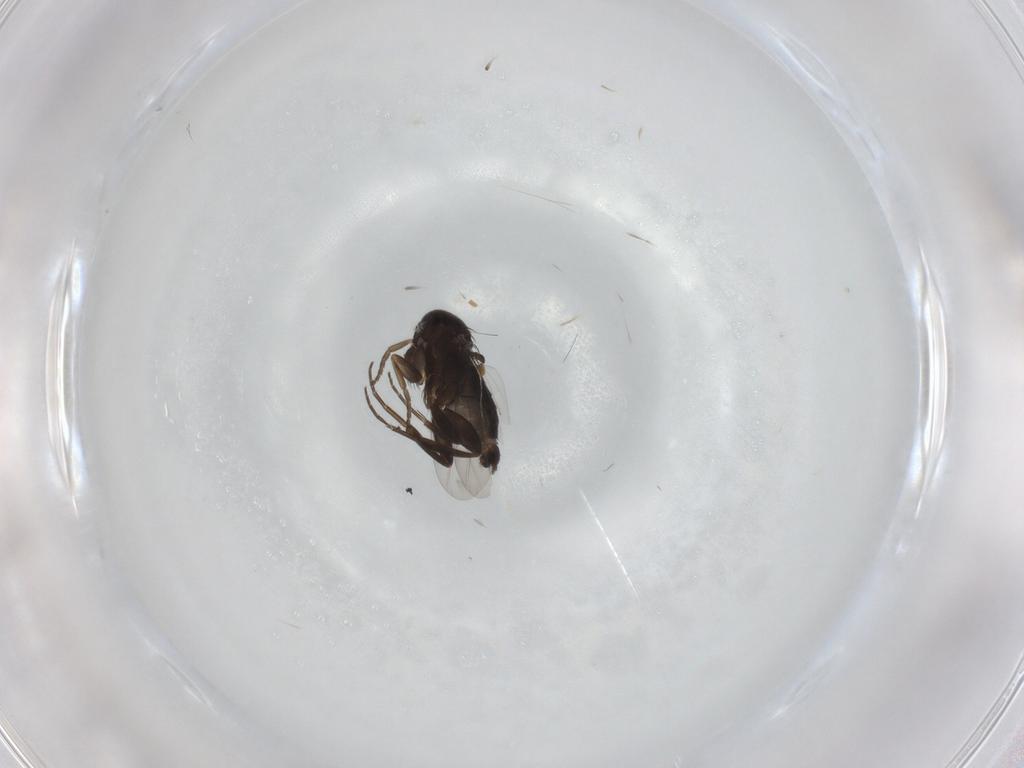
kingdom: Animalia
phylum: Arthropoda
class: Insecta
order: Diptera
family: Phoridae
